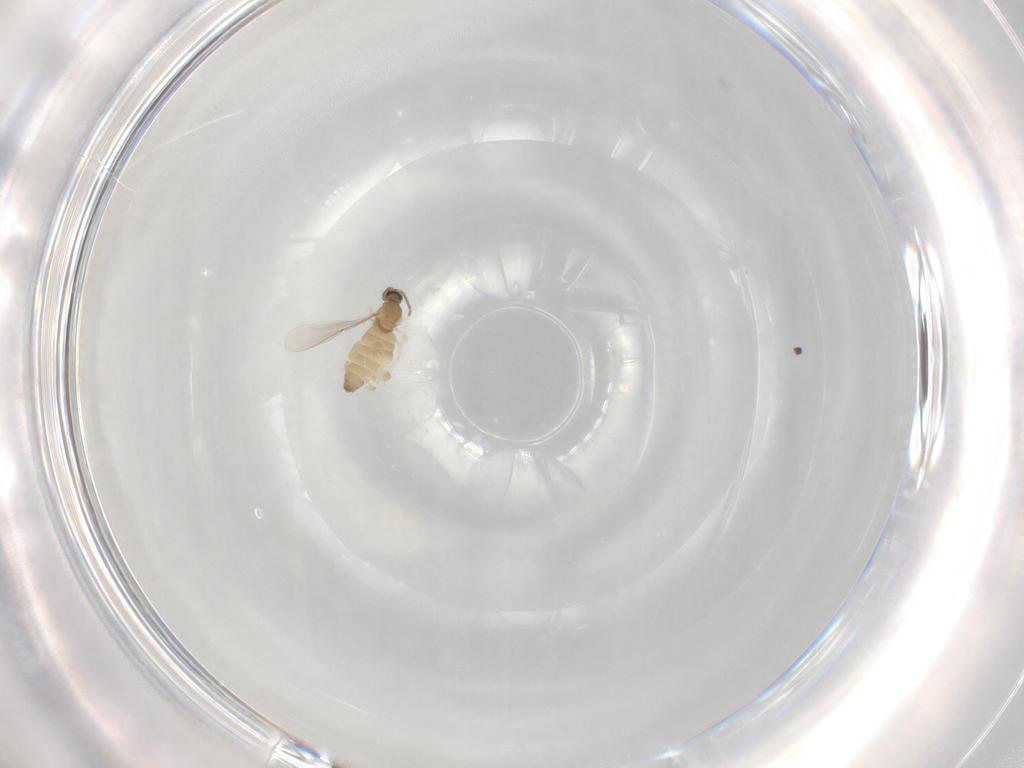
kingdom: Animalia
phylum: Arthropoda
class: Insecta
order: Diptera
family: Cecidomyiidae
